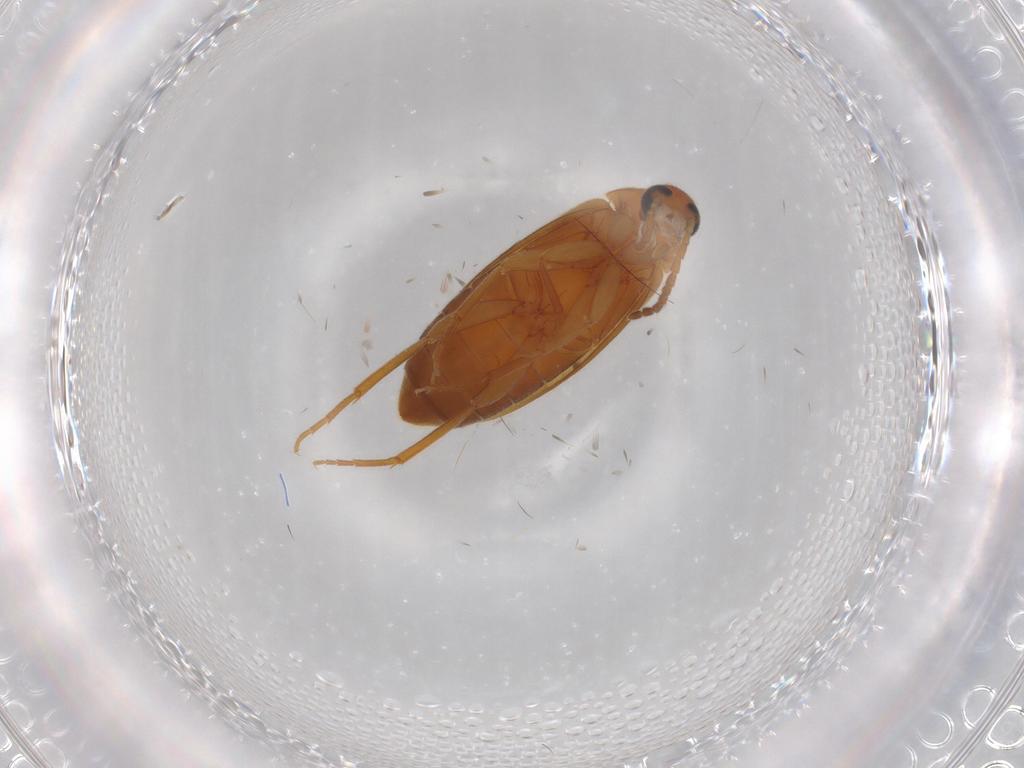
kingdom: Animalia
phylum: Arthropoda
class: Insecta
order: Coleoptera
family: Scraptiidae
